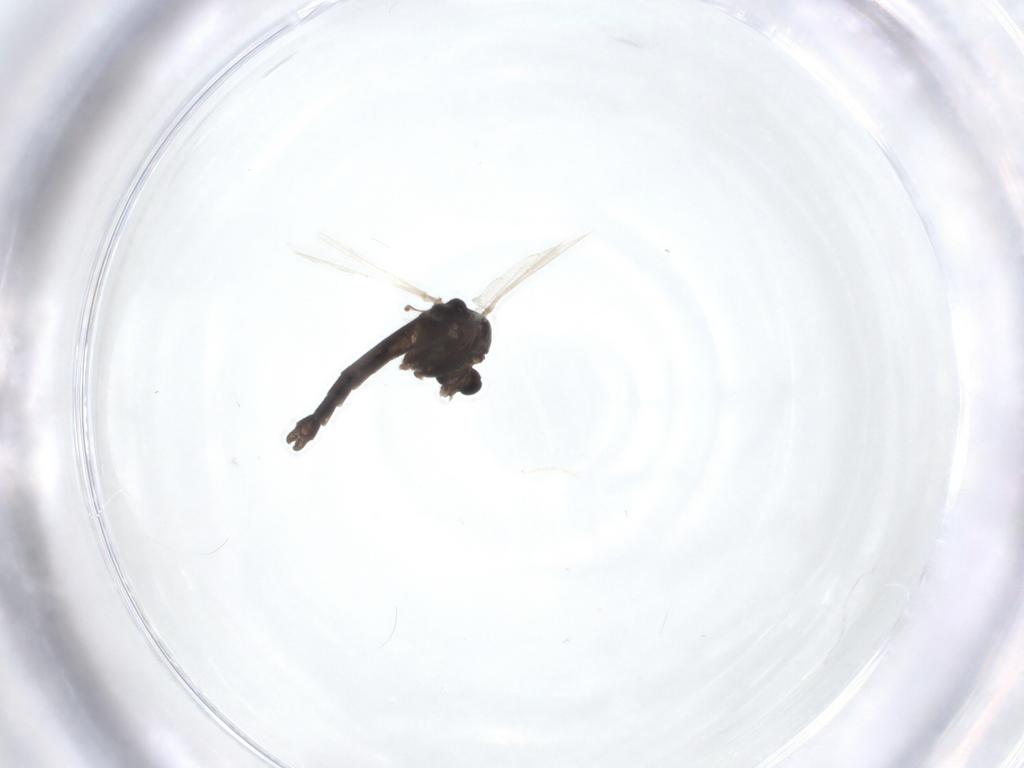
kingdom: Animalia
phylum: Arthropoda
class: Insecta
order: Diptera
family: Chironomidae
